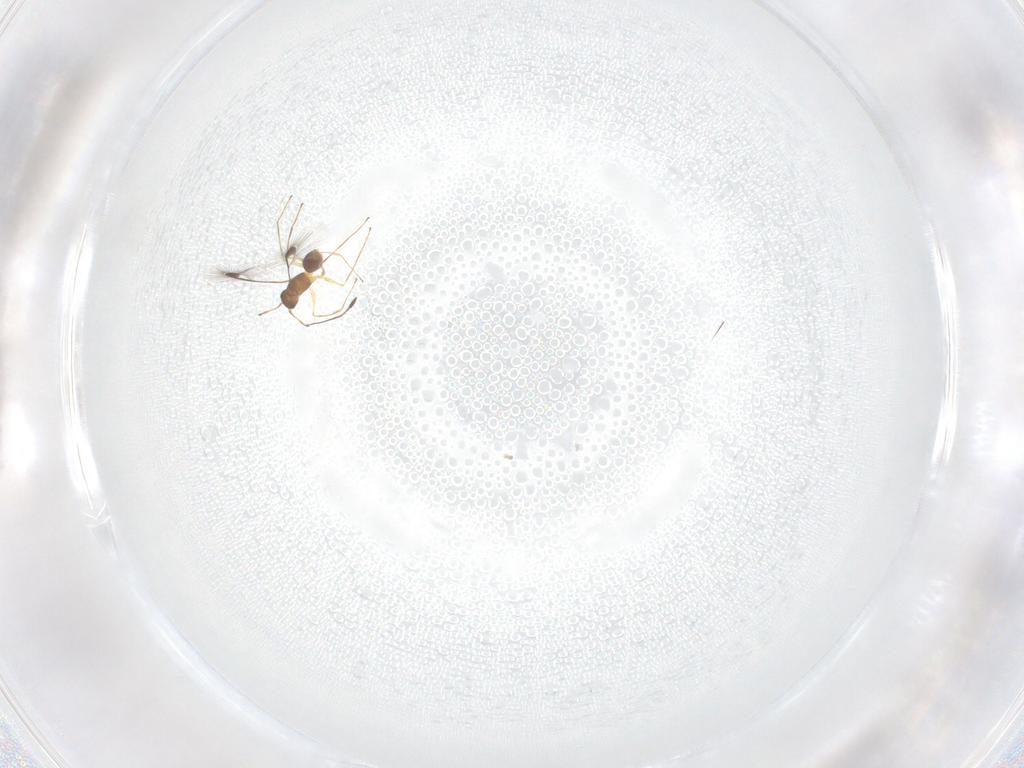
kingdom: Animalia
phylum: Arthropoda
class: Insecta
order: Hymenoptera
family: Mymaridae
